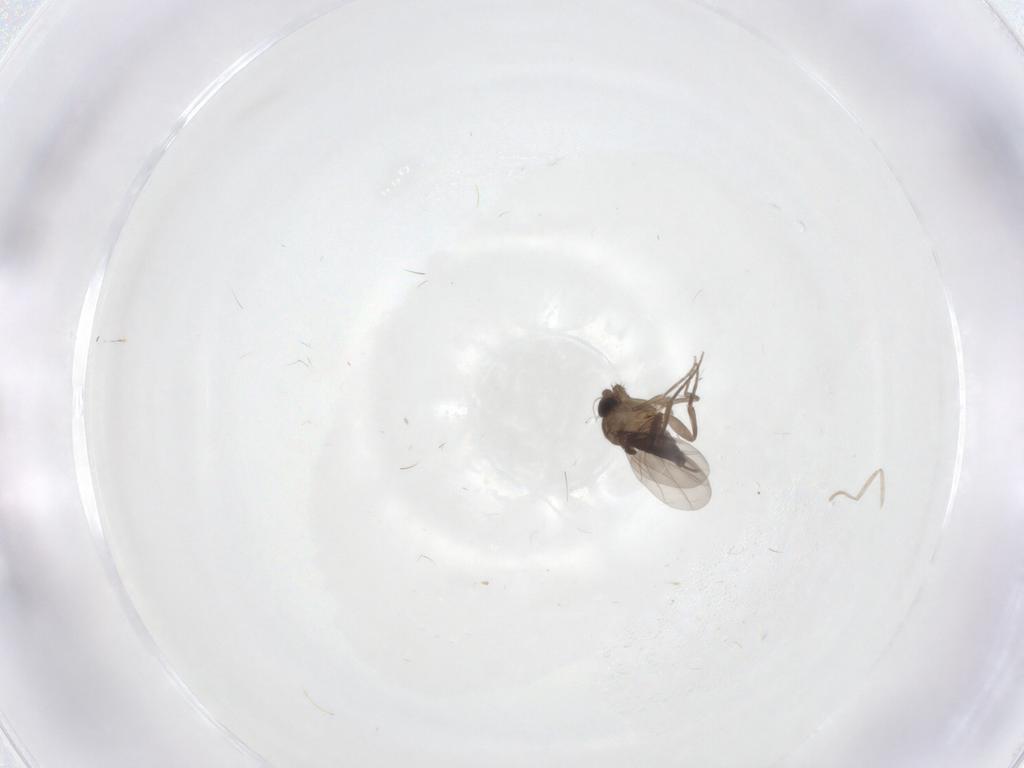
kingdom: Animalia
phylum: Arthropoda
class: Insecta
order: Diptera
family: Phoridae
